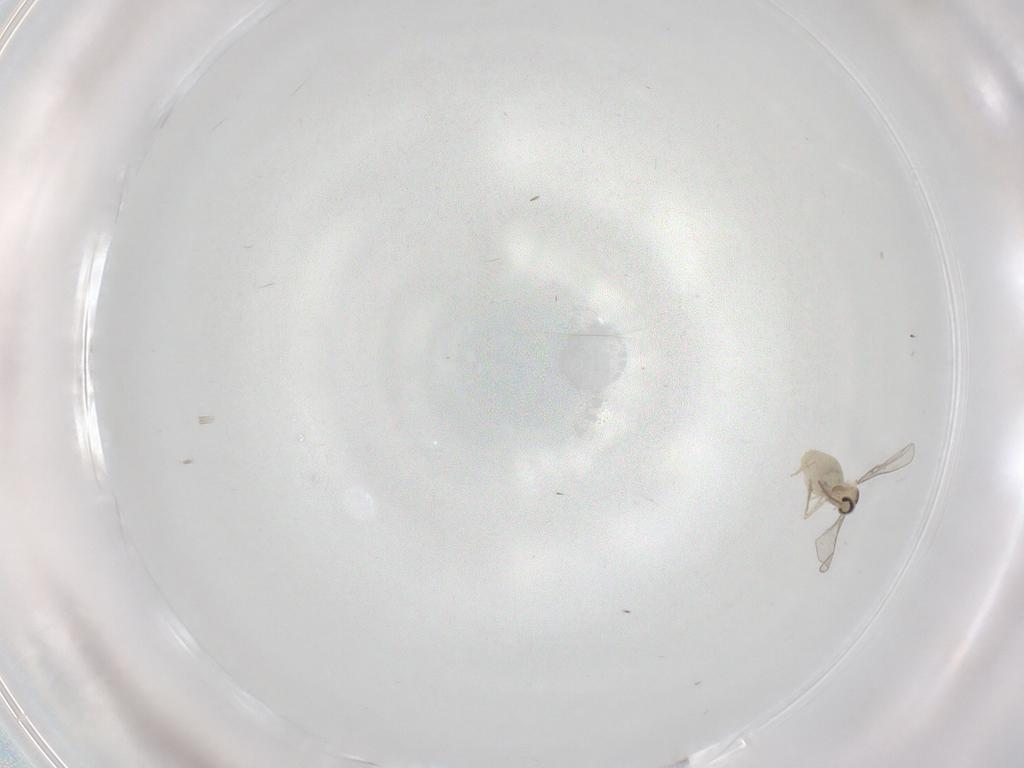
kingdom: Animalia
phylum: Arthropoda
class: Insecta
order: Diptera
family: Cecidomyiidae
